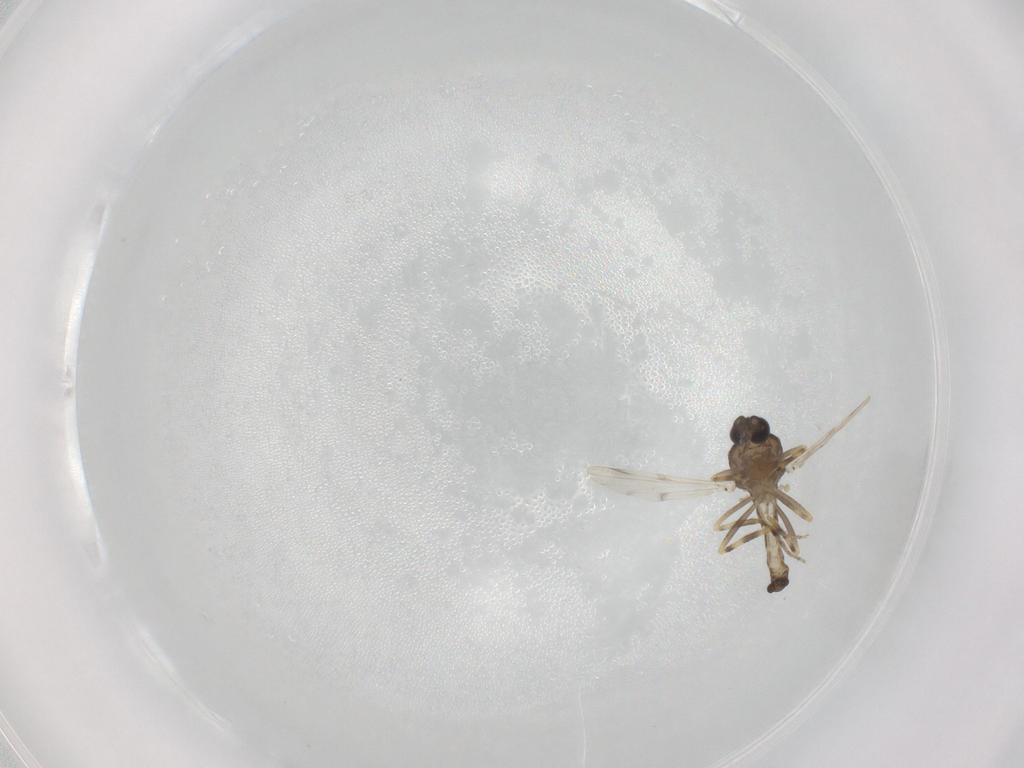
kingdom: Animalia
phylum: Arthropoda
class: Insecta
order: Diptera
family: Ceratopogonidae
